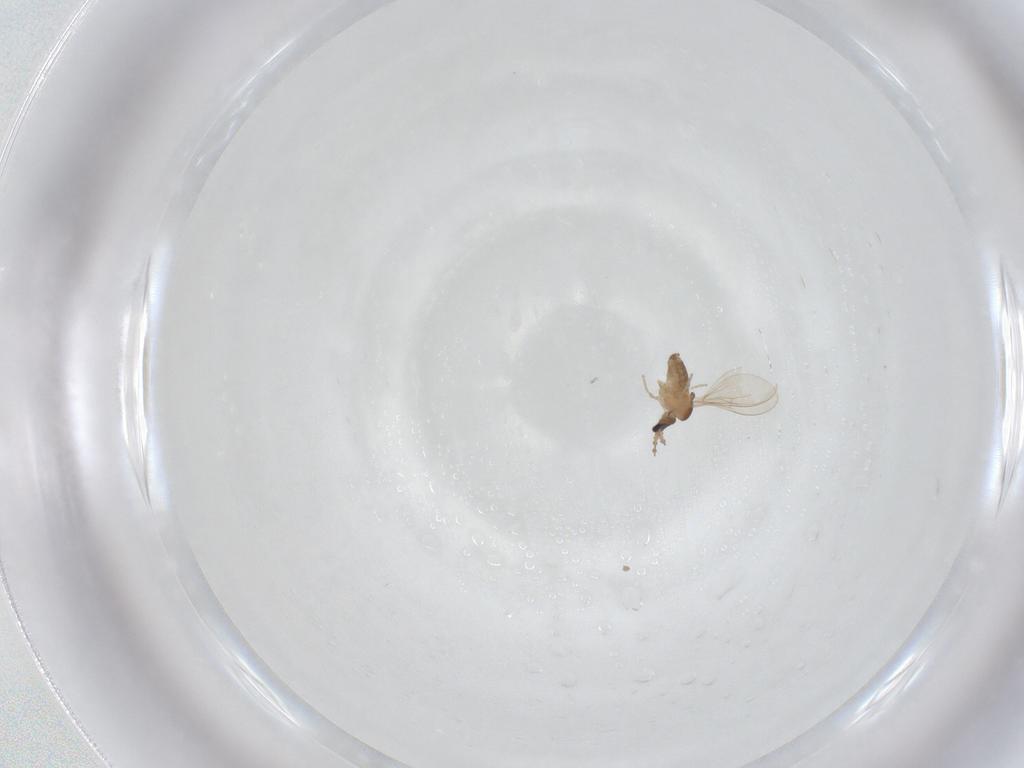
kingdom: Animalia
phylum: Arthropoda
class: Insecta
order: Diptera
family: Cecidomyiidae
